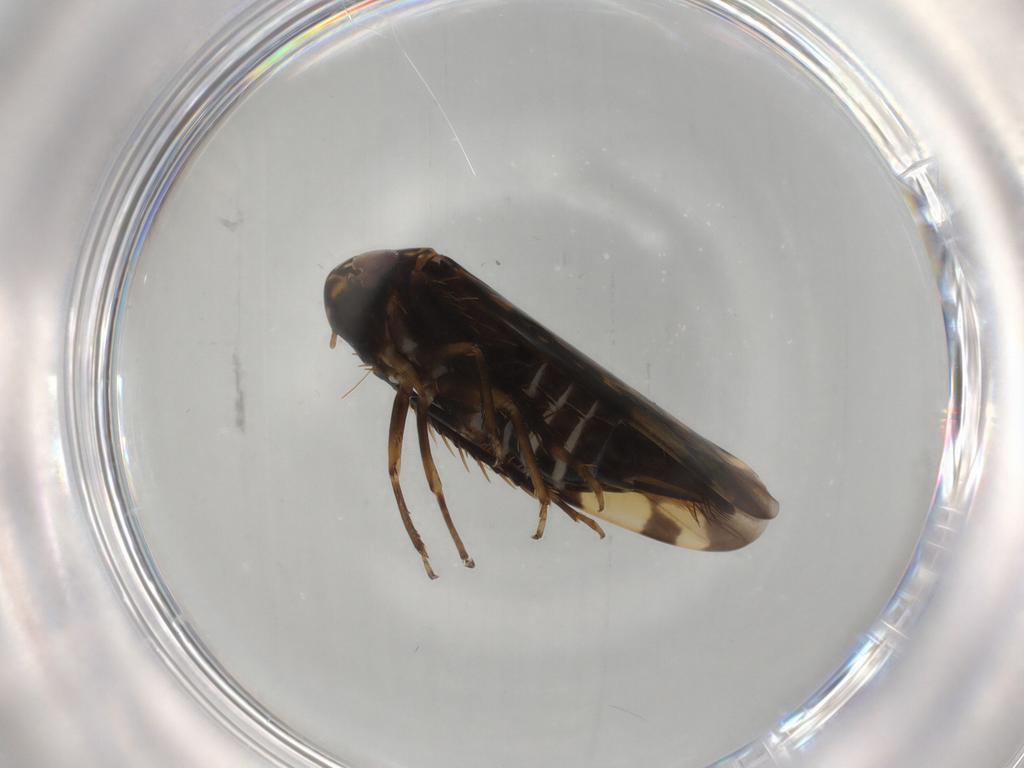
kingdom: Animalia
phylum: Arthropoda
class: Insecta
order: Hemiptera
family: Cicadellidae
